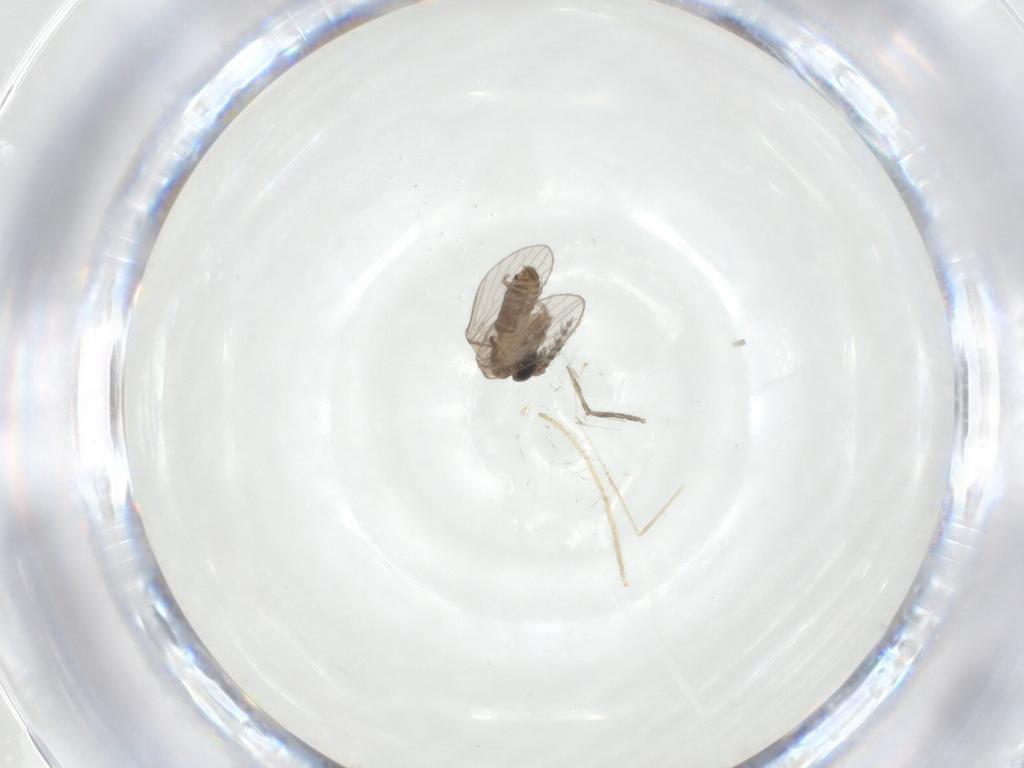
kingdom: Animalia
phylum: Arthropoda
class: Insecta
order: Diptera
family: Chironomidae
